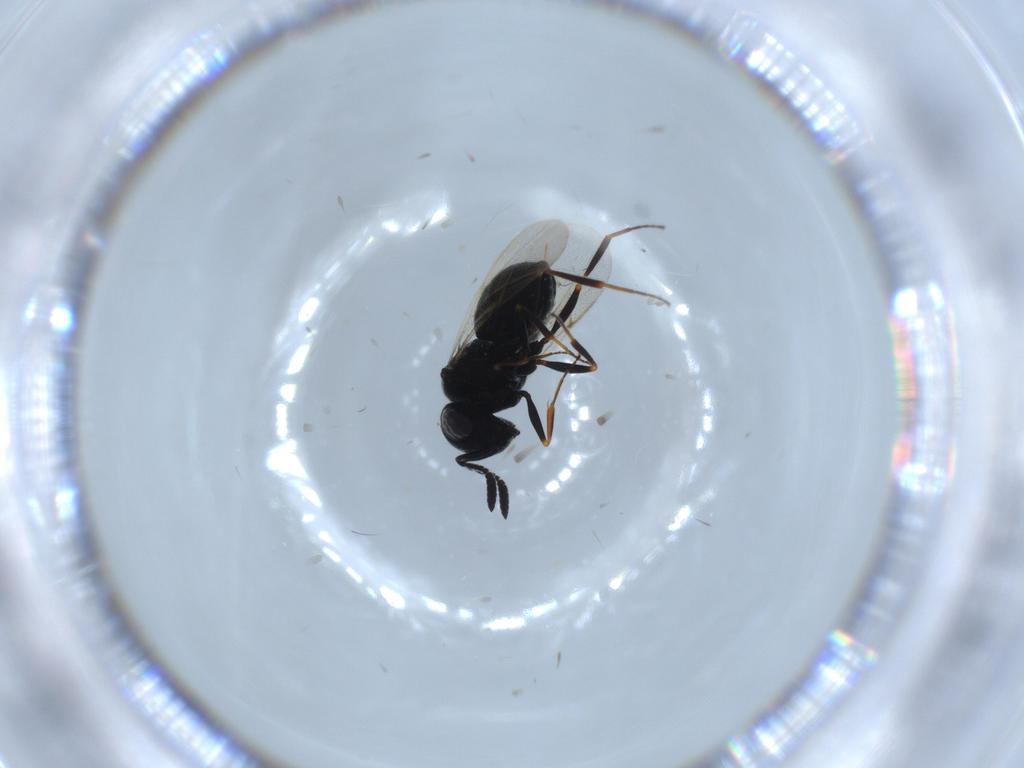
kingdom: Animalia
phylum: Arthropoda
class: Insecta
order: Hymenoptera
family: Scelionidae
